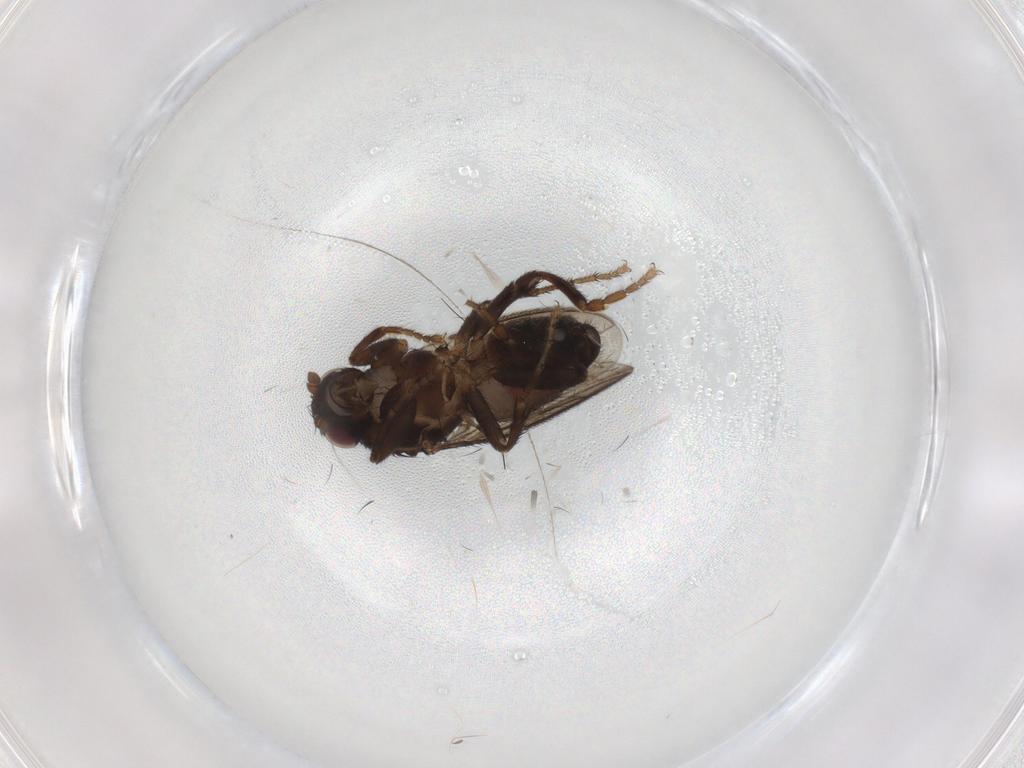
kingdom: Animalia
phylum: Arthropoda
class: Insecta
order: Diptera
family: Sphaeroceridae
